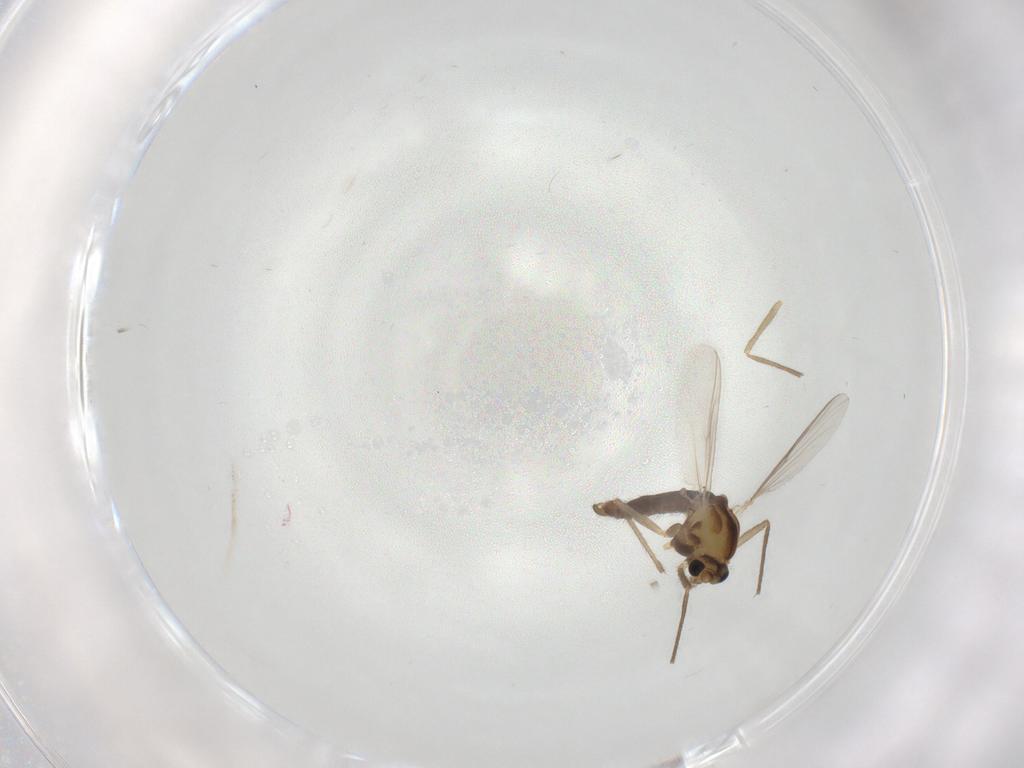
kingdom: Animalia
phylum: Arthropoda
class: Insecta
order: Diptera
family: Chironomidae
